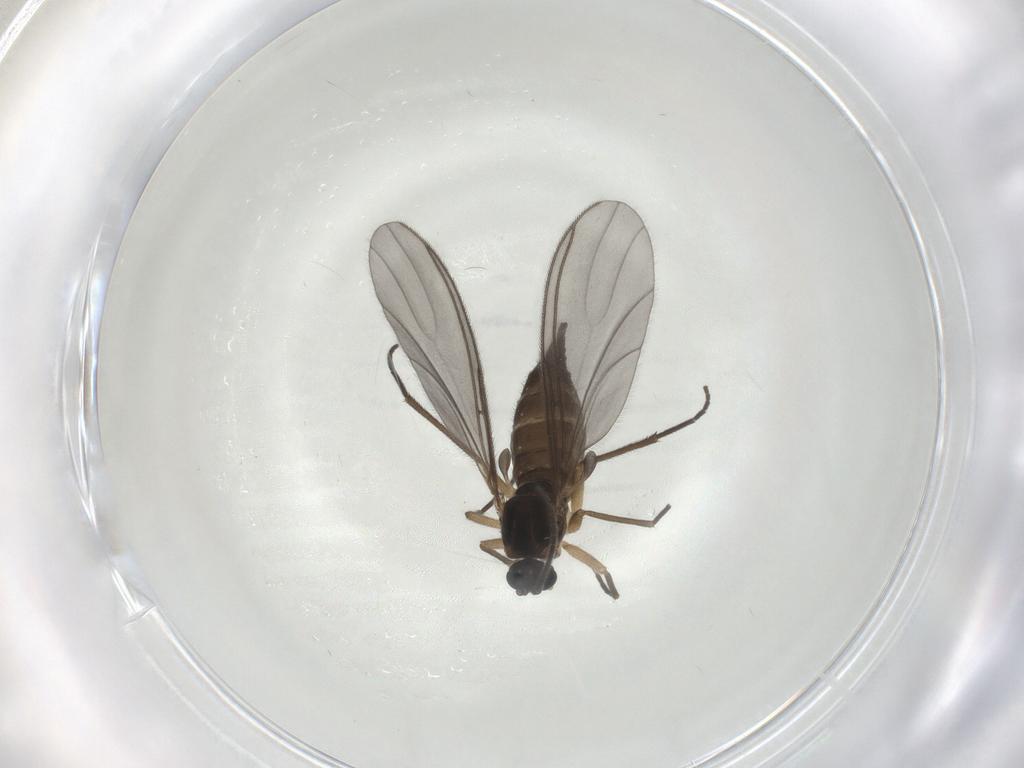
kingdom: Animalia
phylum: Arthropoda
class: Insecta
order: Diptera
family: Sciaridae
